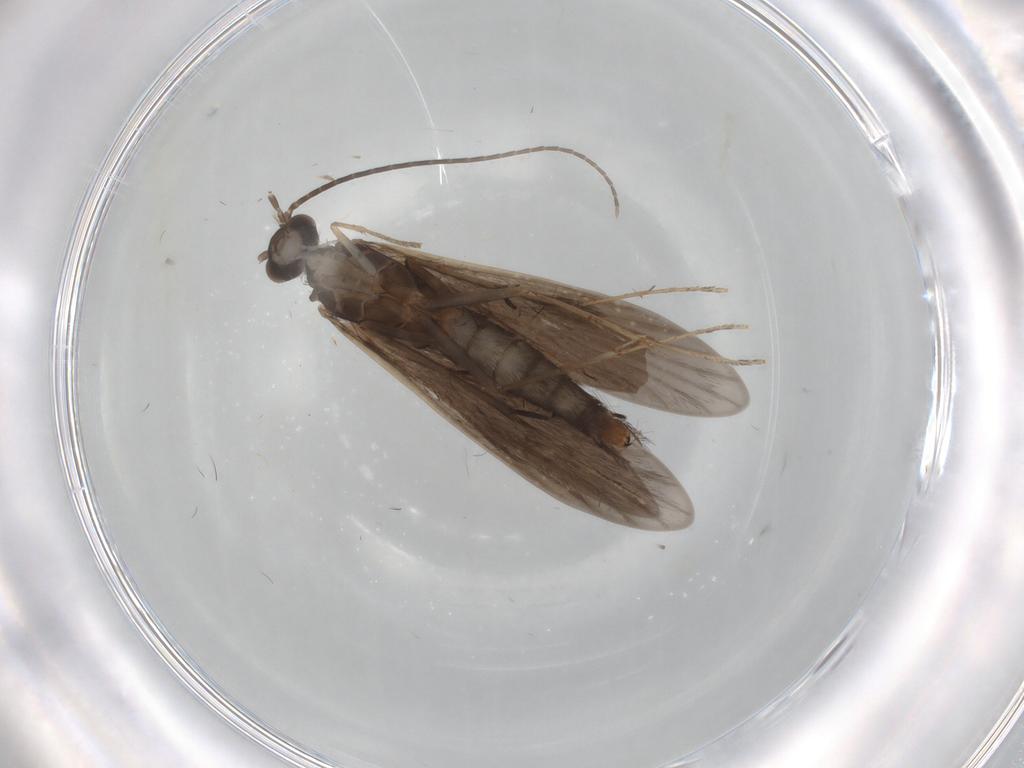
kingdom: Animalia
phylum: Arthropoda
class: Insecta
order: Trichoptera
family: Xiphocentronidae
